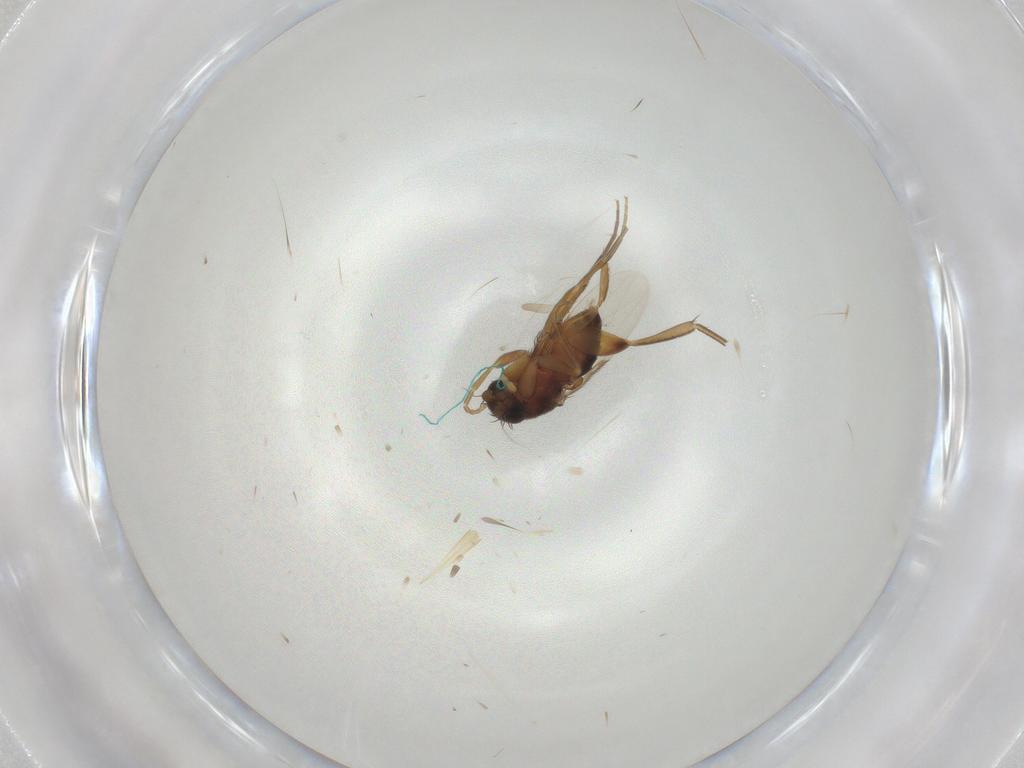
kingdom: Animalia
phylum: Arthropoda
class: Insecta
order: Diptera
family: Phoridae
